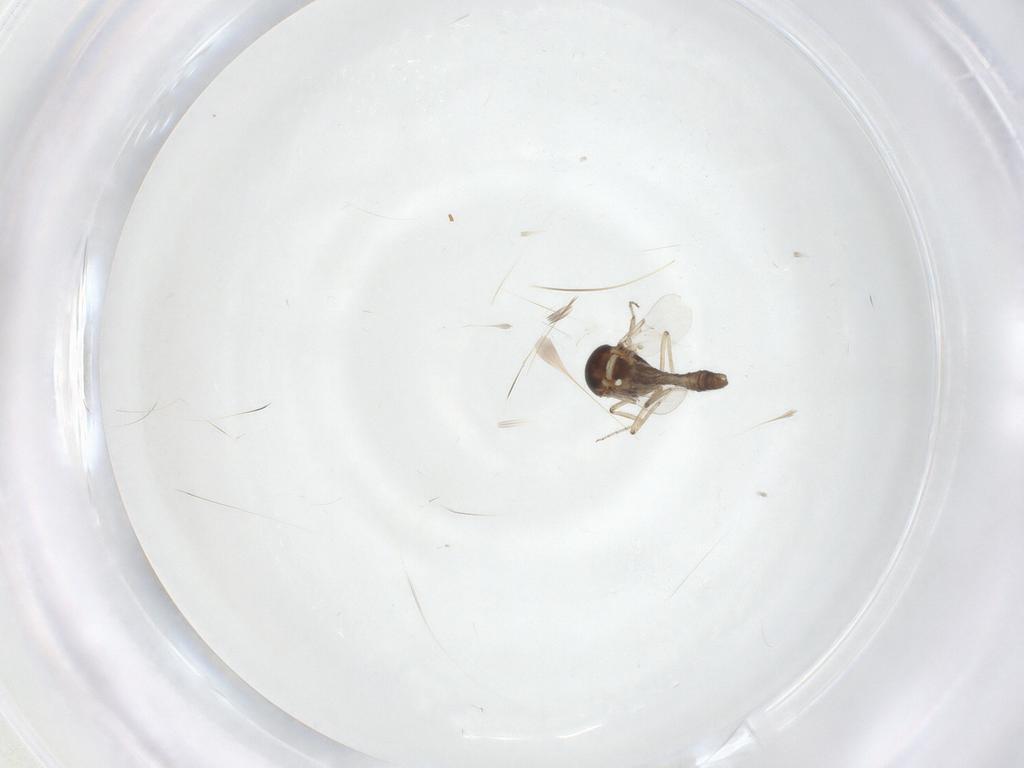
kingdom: Animalia
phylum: Arthropoda
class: Insecta
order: Diptera
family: Ceratopogonidae
